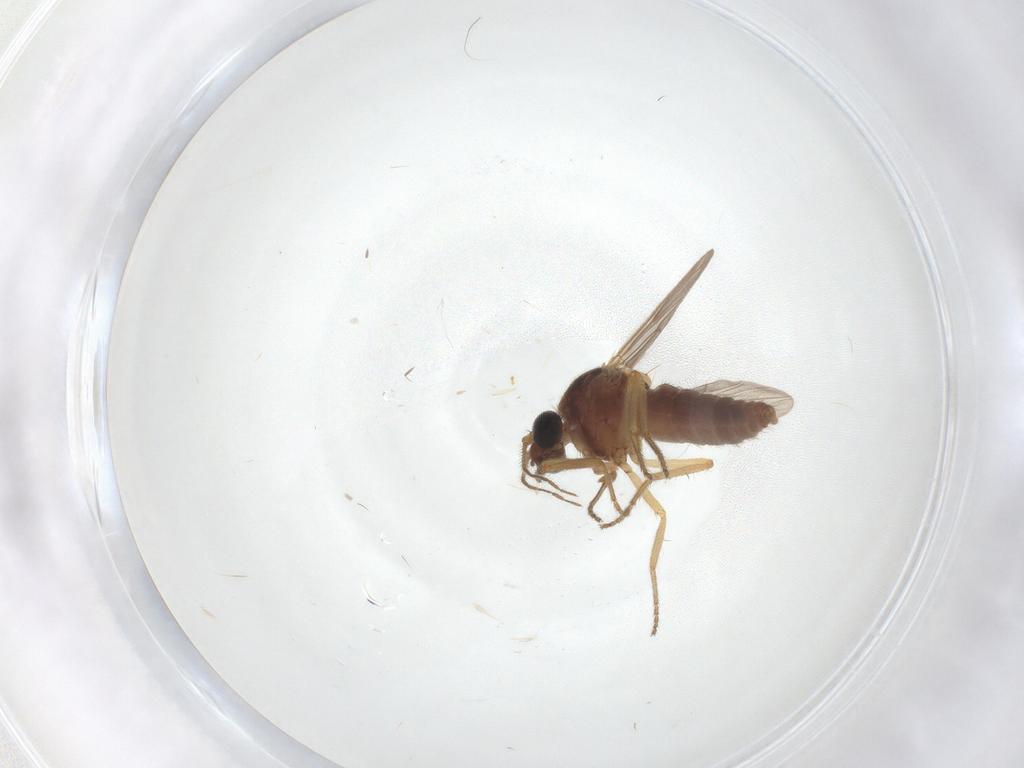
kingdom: Animalia
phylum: Arthropoda
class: Insecta
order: Diptera
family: Ceratopogonidae
